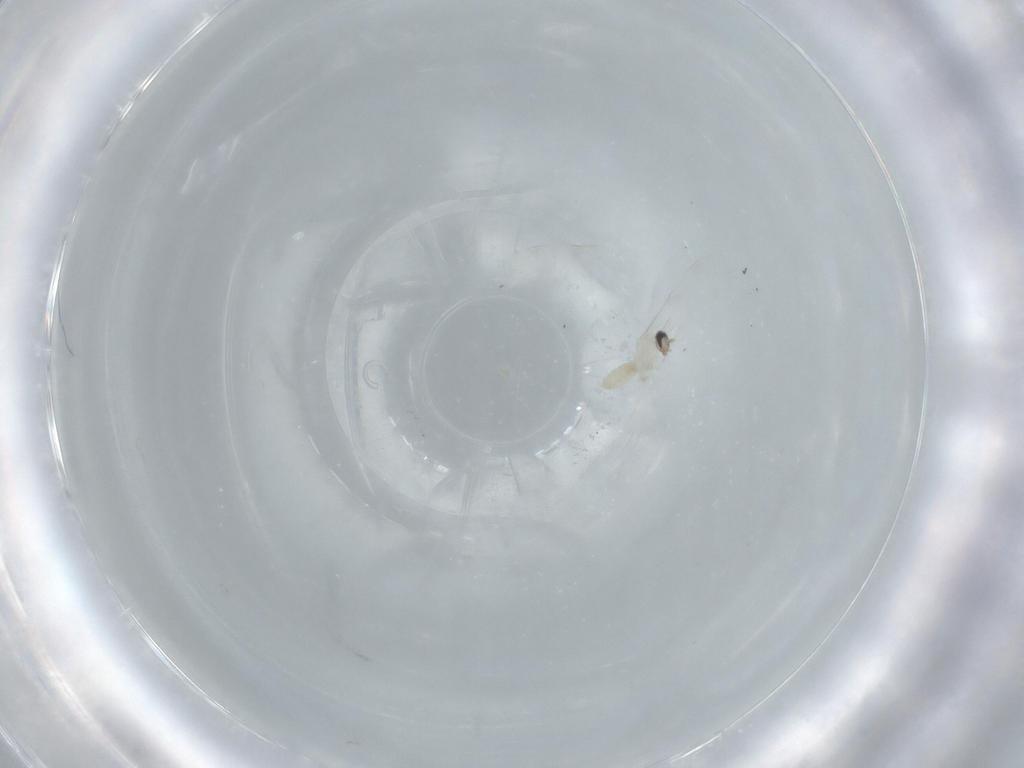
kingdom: Animalia
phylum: Arthropoda
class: Insecta
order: Diptera
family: Cecidomyiidae
